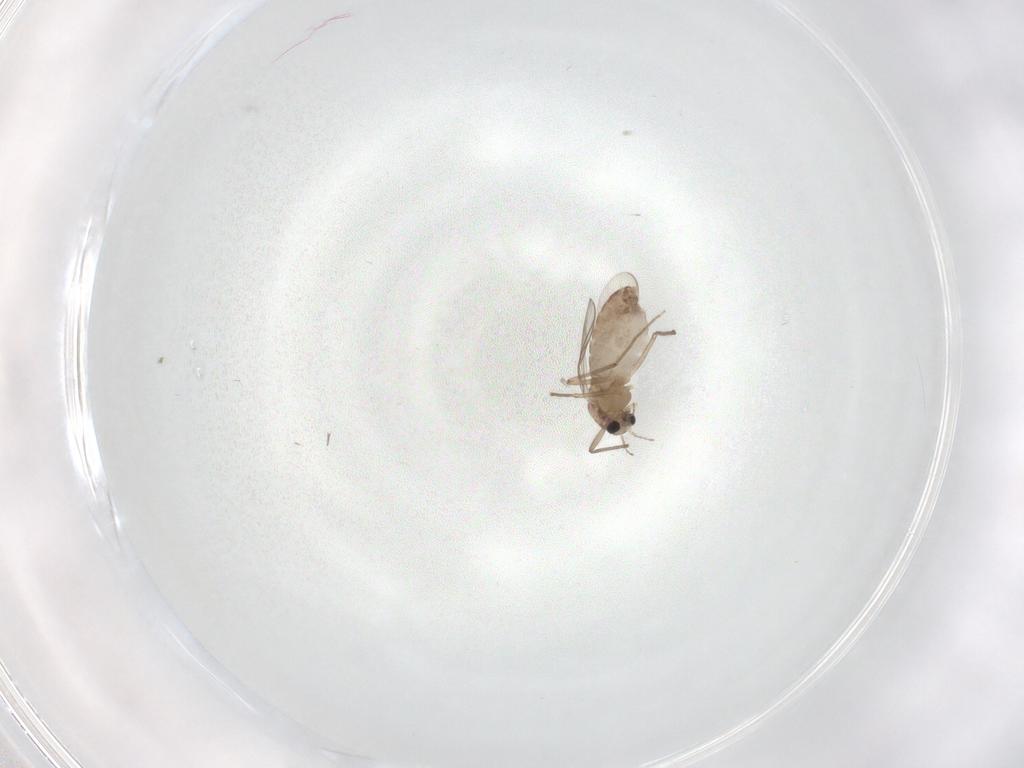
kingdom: Animalia
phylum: Arthropoda
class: Insecta
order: Diptera
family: Chironomidae
